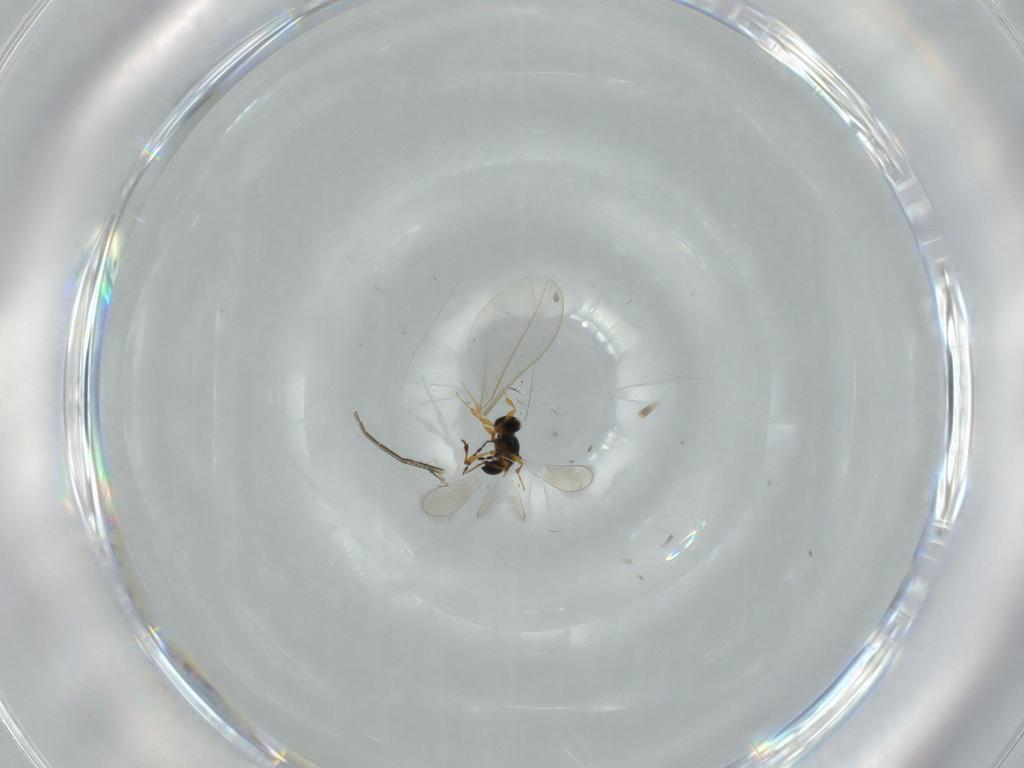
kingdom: Animalia
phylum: Arthropoda
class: Insecta
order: Hymenoptera
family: Platygastridae
